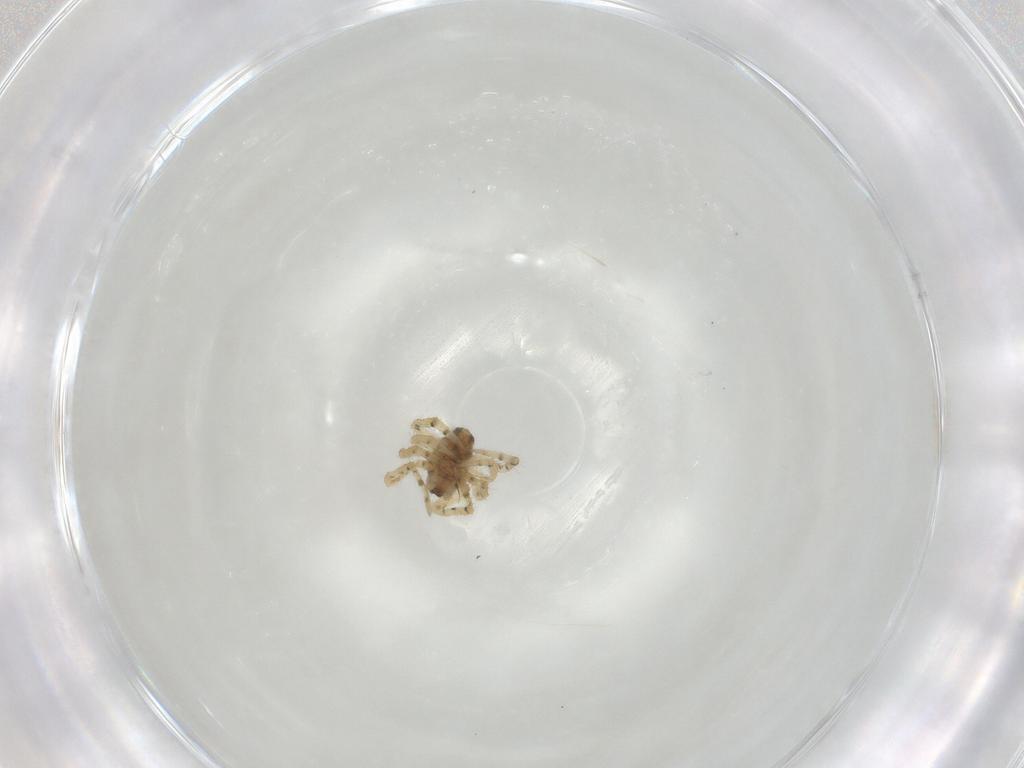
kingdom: Animalia
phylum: Arthropoda
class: Arachnida
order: Araneae
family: Theridiidae
